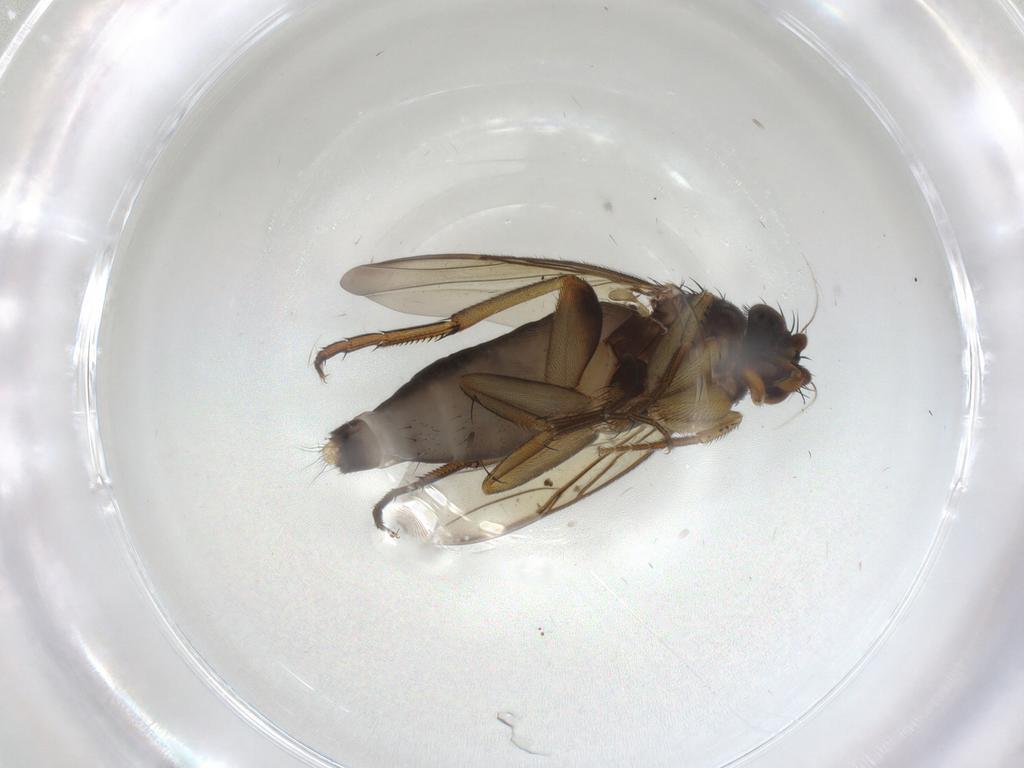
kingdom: Animalia
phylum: Arthropoda
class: Insecta
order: Diptera
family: Phoridae
